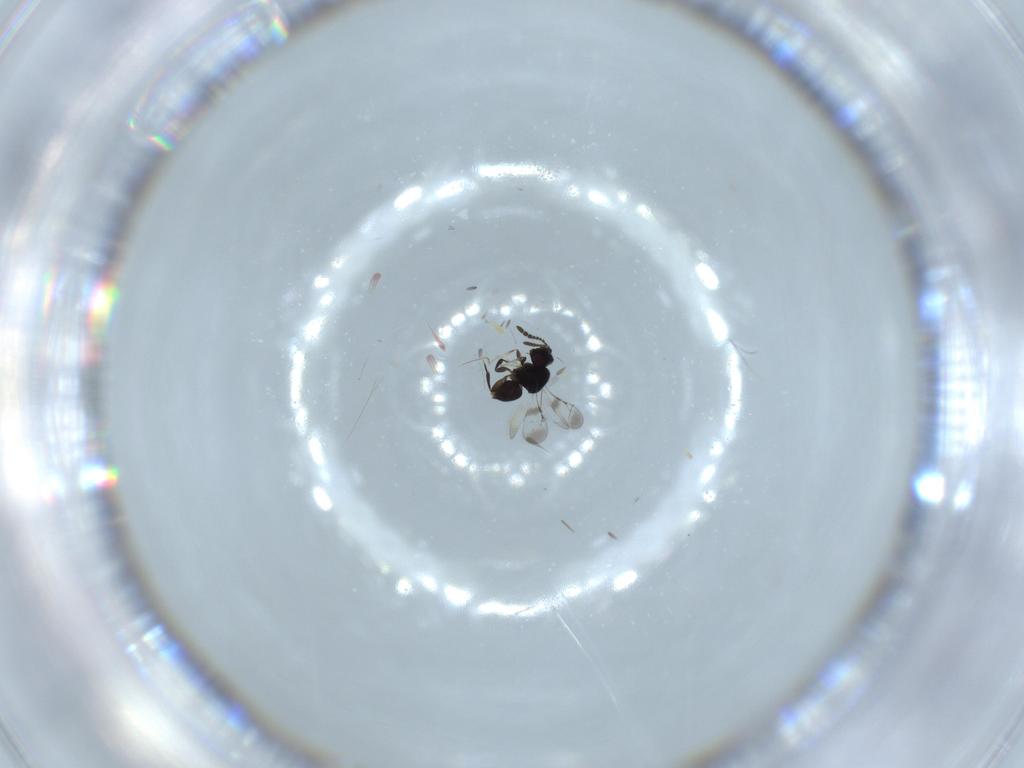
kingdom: Animalia
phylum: Arthropoda
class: Insecta
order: Hymenoptera
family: Ceraphronidae
